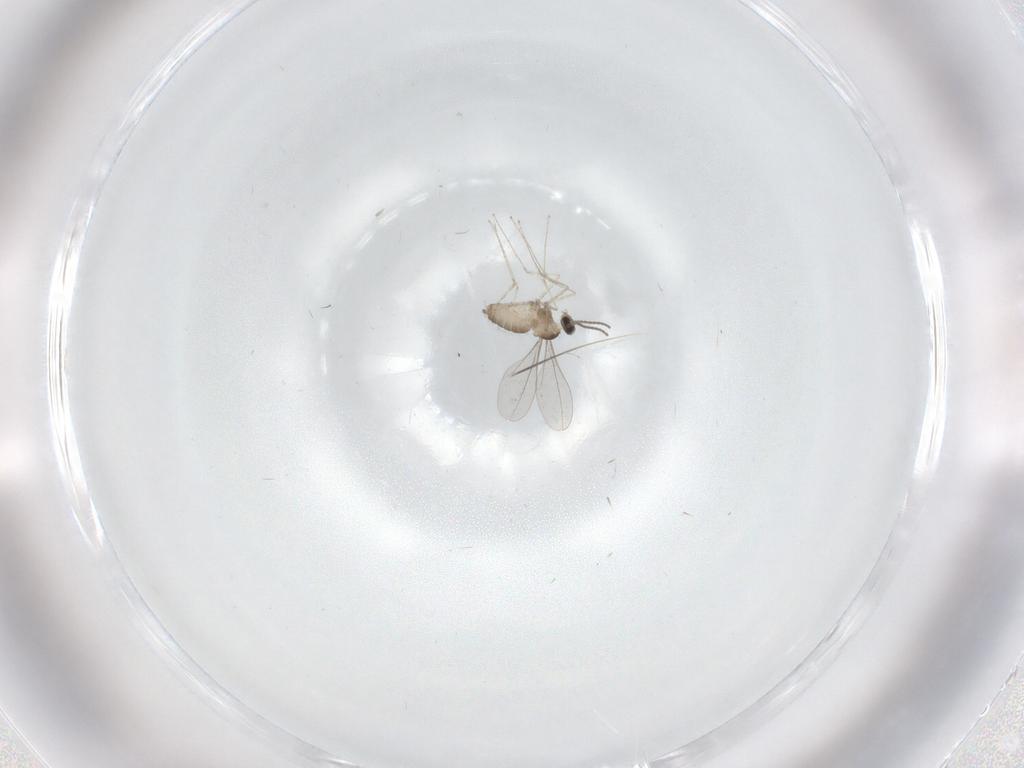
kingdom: Animalia
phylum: Arthropoda
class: Insecta
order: Diptera
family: Cecidomyiidae
